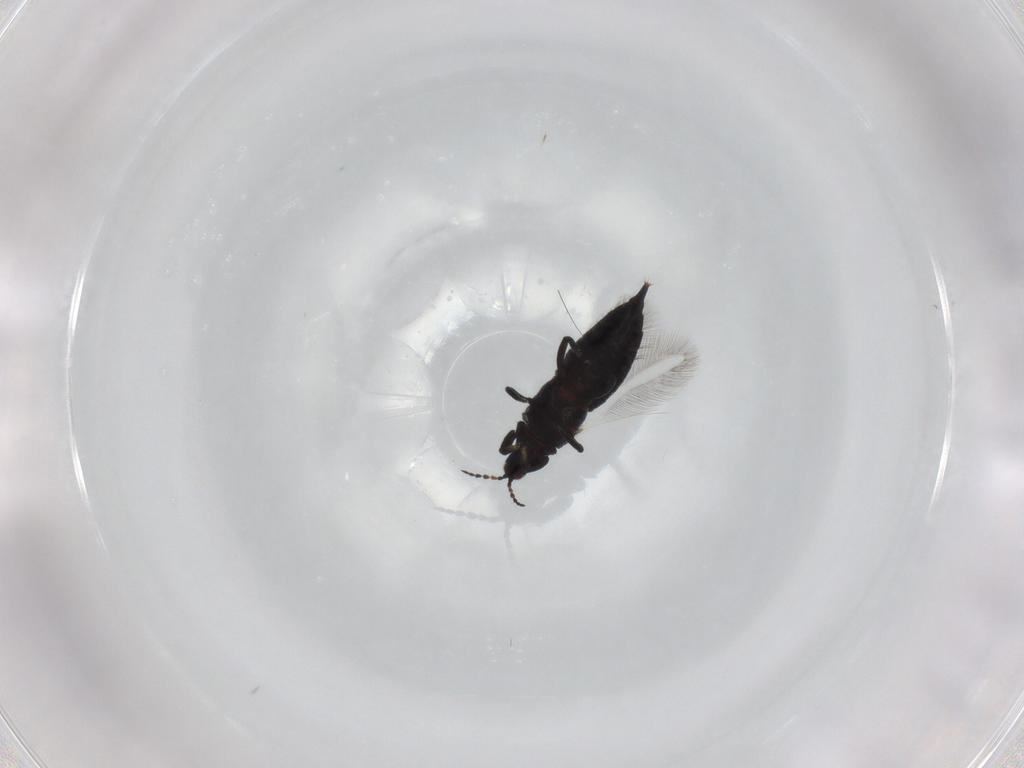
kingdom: Animalia
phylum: Arthropoda
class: Insecta
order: Thysanoptera
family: Phlaeothripidae
